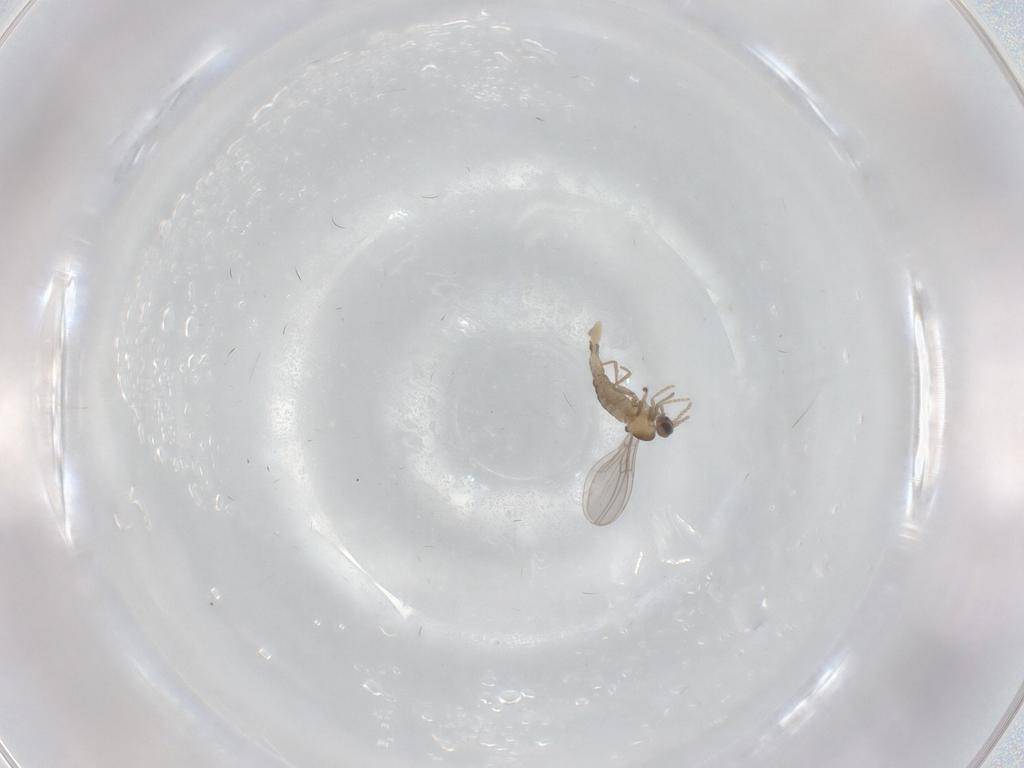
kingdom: Animalia
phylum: Arthropoda
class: Insecta
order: Diptera
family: Cecidomyiidae
